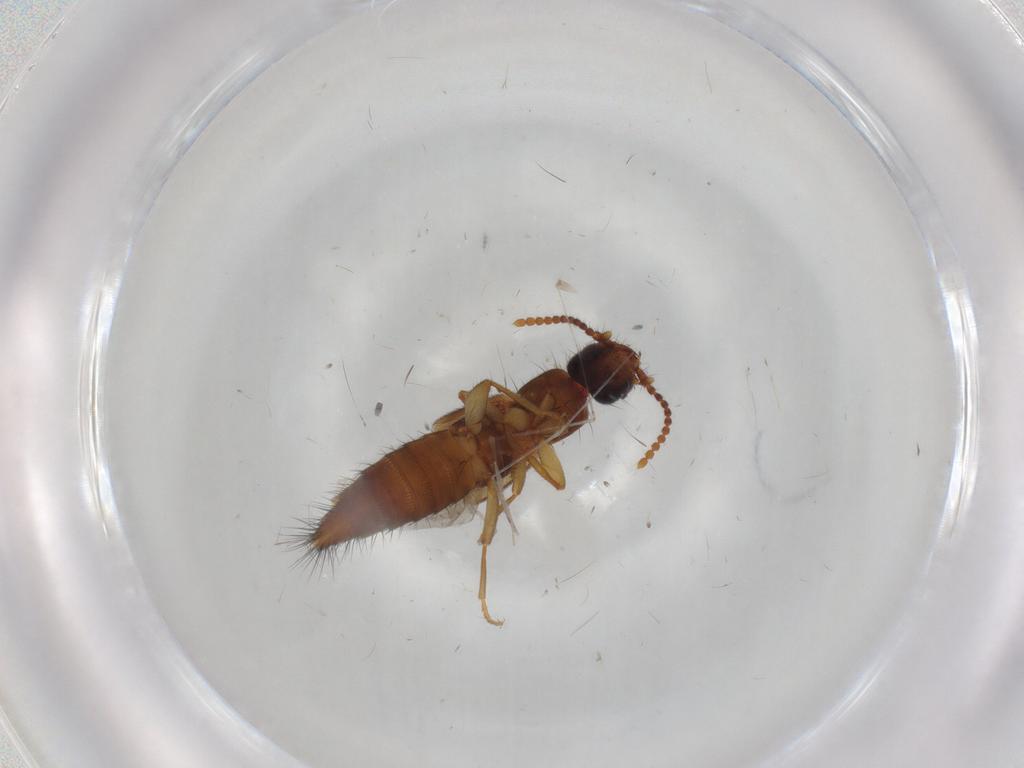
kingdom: Animalia
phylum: Arthropoda
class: Insecta
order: Coleoptera
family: Staphylinidae
